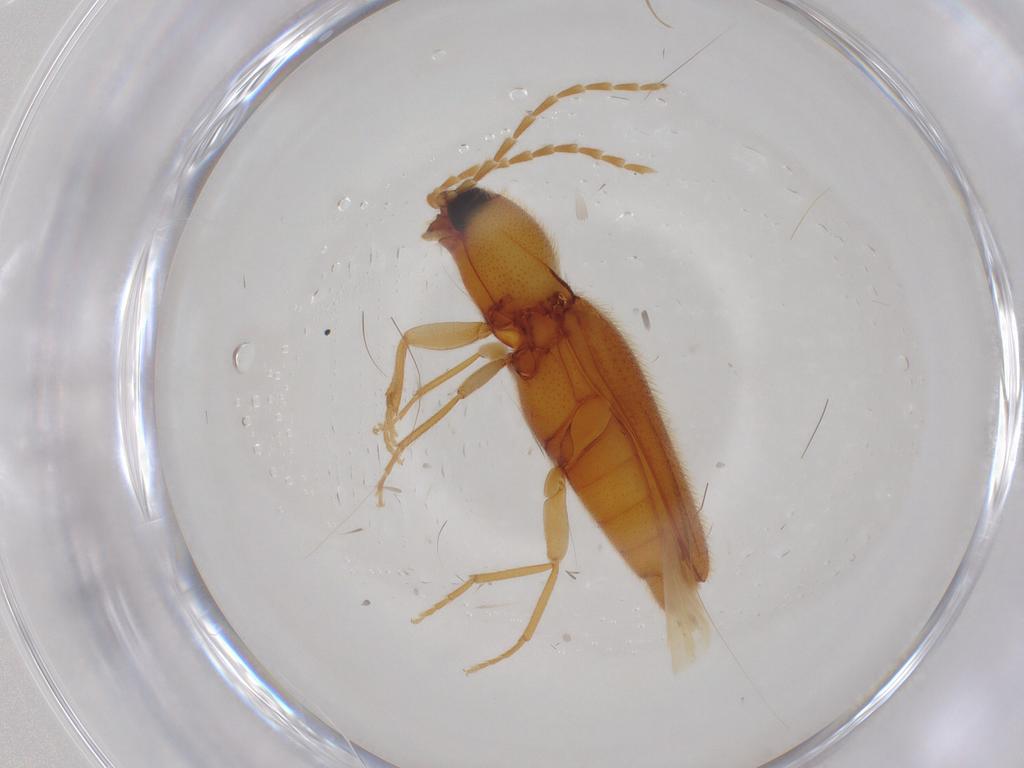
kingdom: Animalia
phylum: Arthropoda
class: Insecta
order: Coleoptera
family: Elateridae
